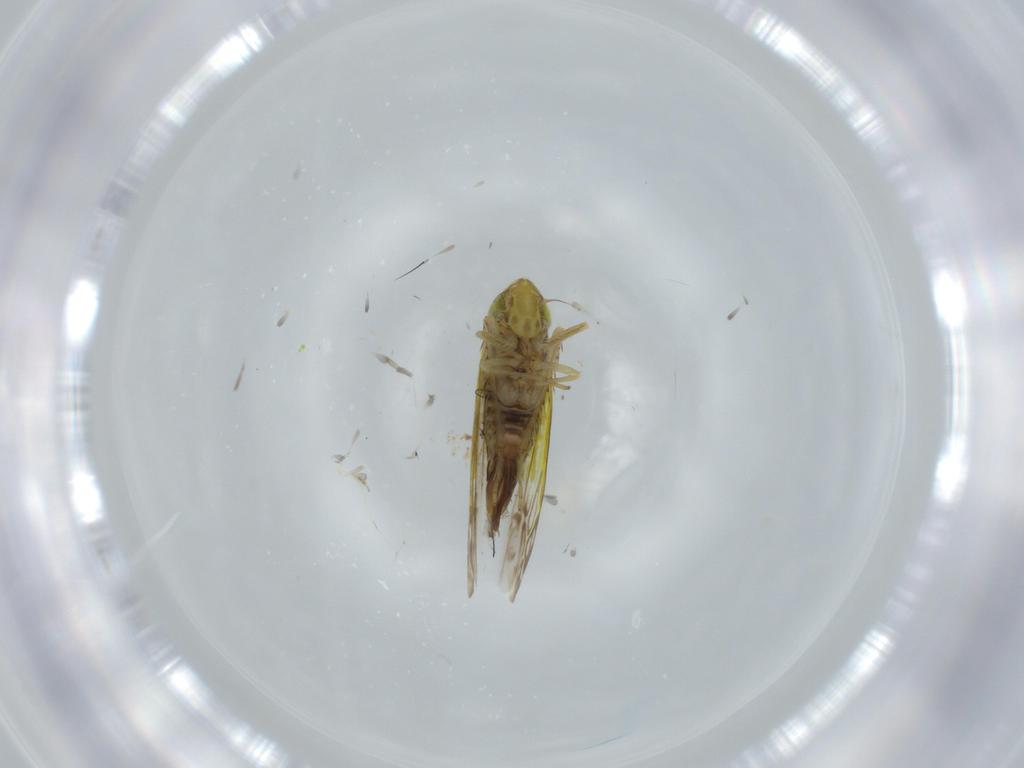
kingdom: Animalia
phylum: Arthropoda
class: Insecta
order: Hemiptera
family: Cicadellidae
